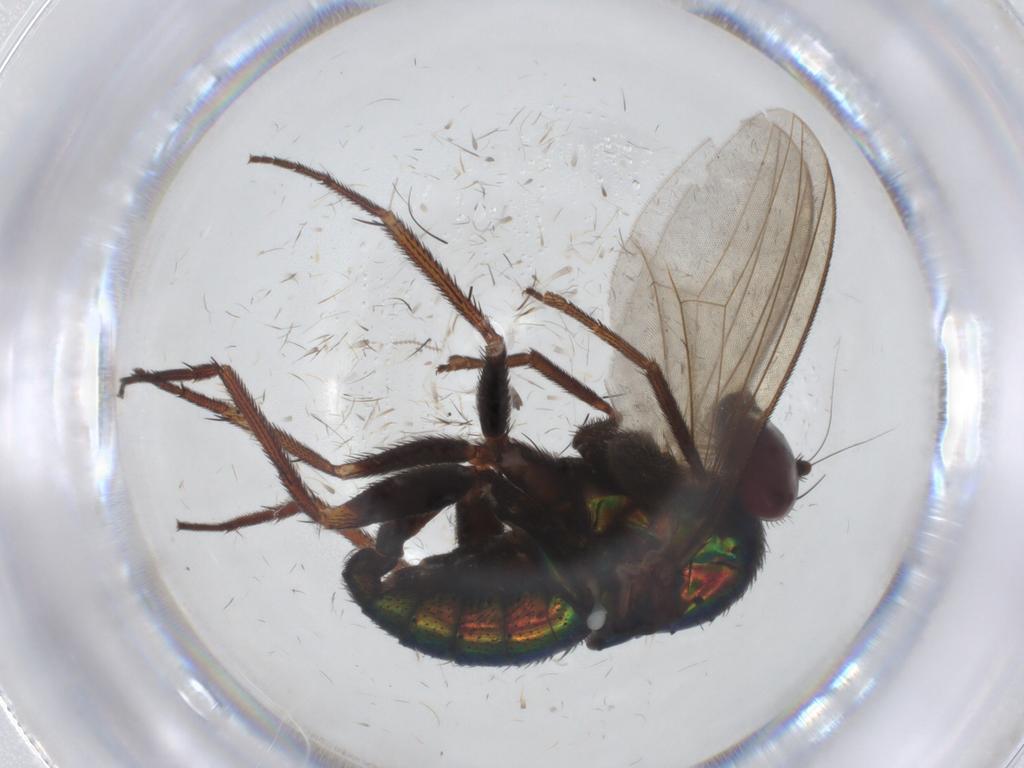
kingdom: Animalia
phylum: Arthropoda
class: Insecta
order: Diptera
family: Dolichopodidae
